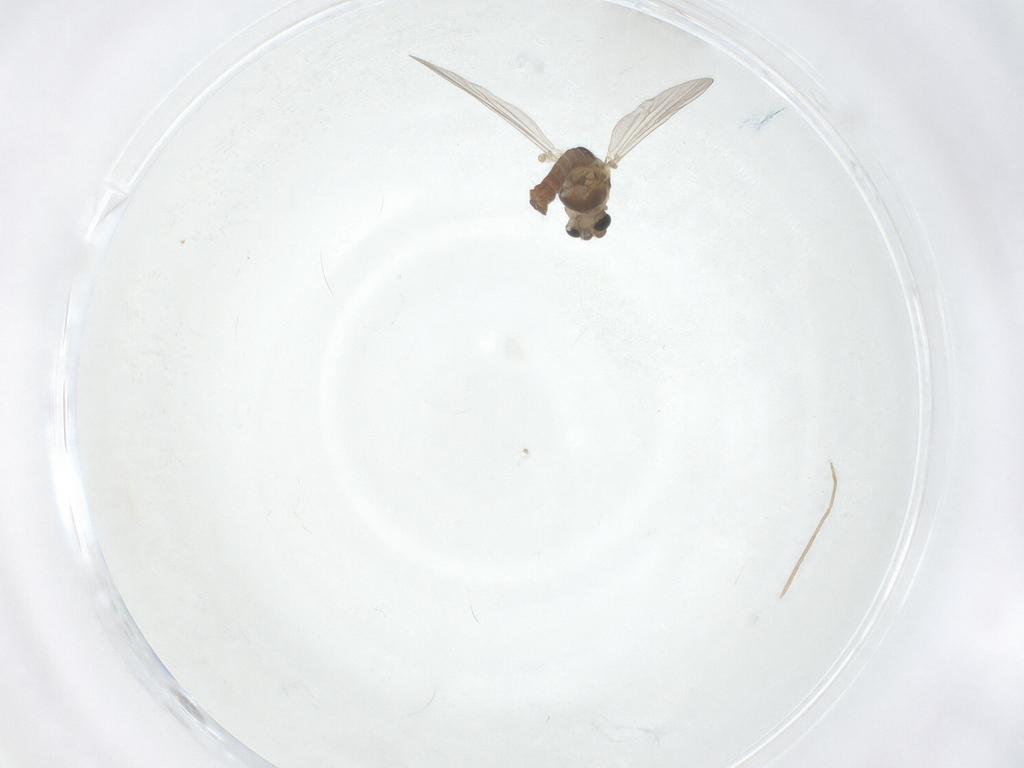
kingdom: Animalia
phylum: Arthropoda
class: Insecta
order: Diptera
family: Chironomidae
